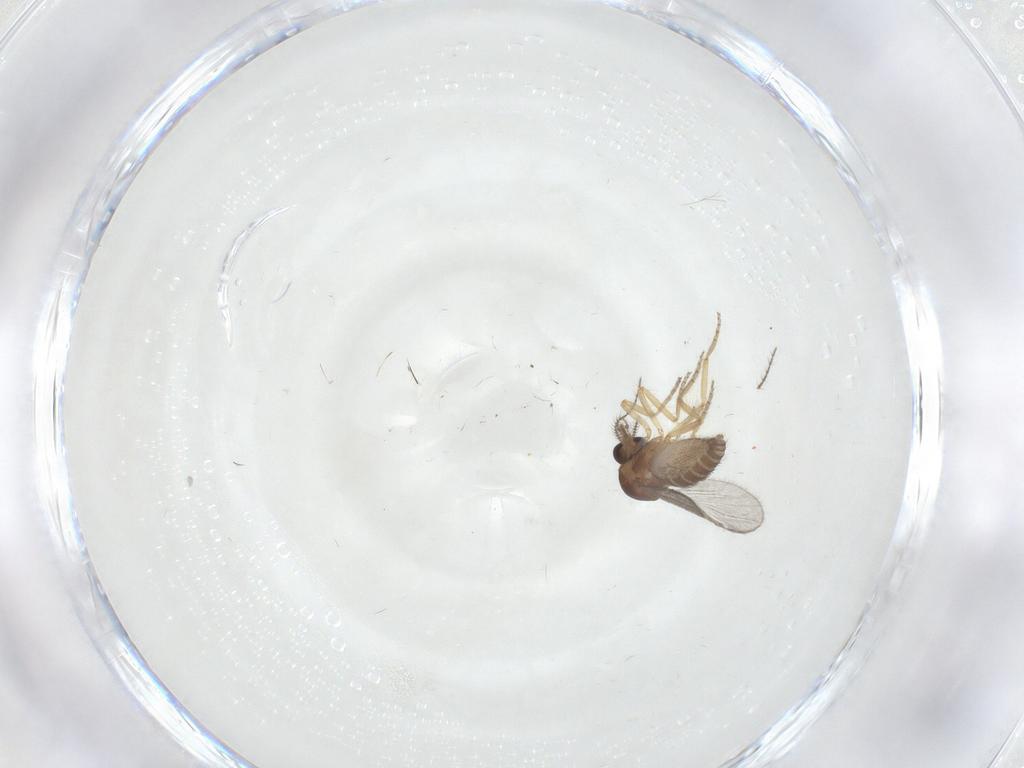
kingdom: Animalia
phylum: Arthropoda
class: Insecta
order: Diptera
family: Ceratopogonidae
